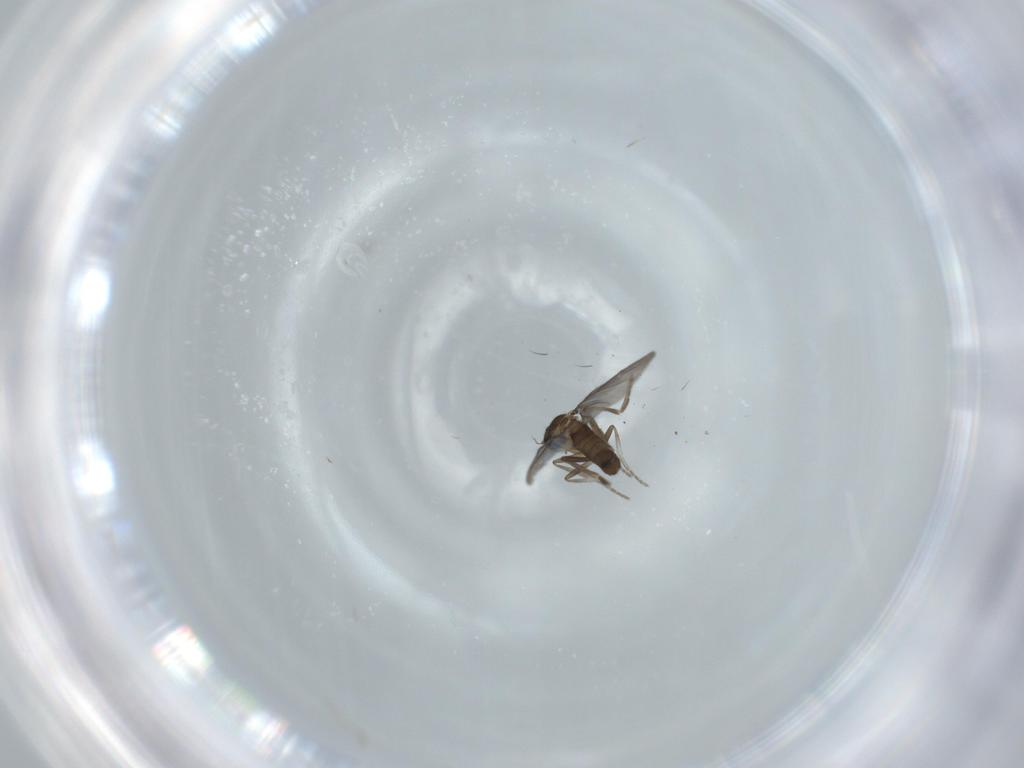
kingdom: Animalia
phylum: Arthropoda
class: Insecta
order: Diptera
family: Phoridae
